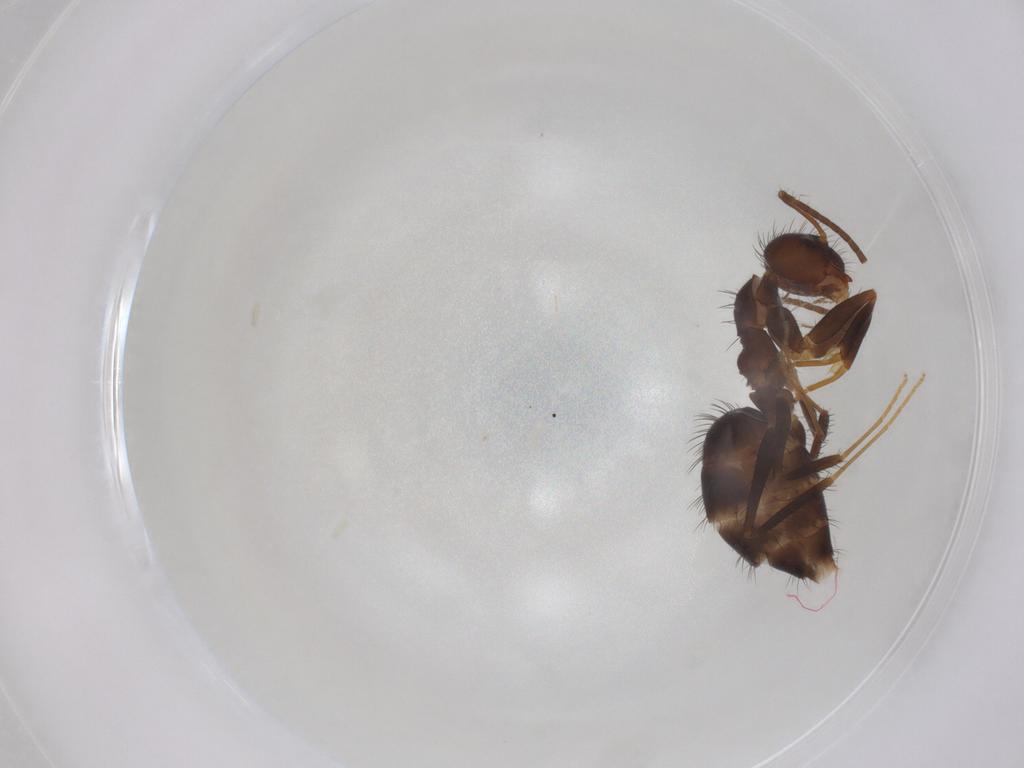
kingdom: Animalia
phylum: Arthropoda
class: Insecta
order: Hymenoptera
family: Formicidae
